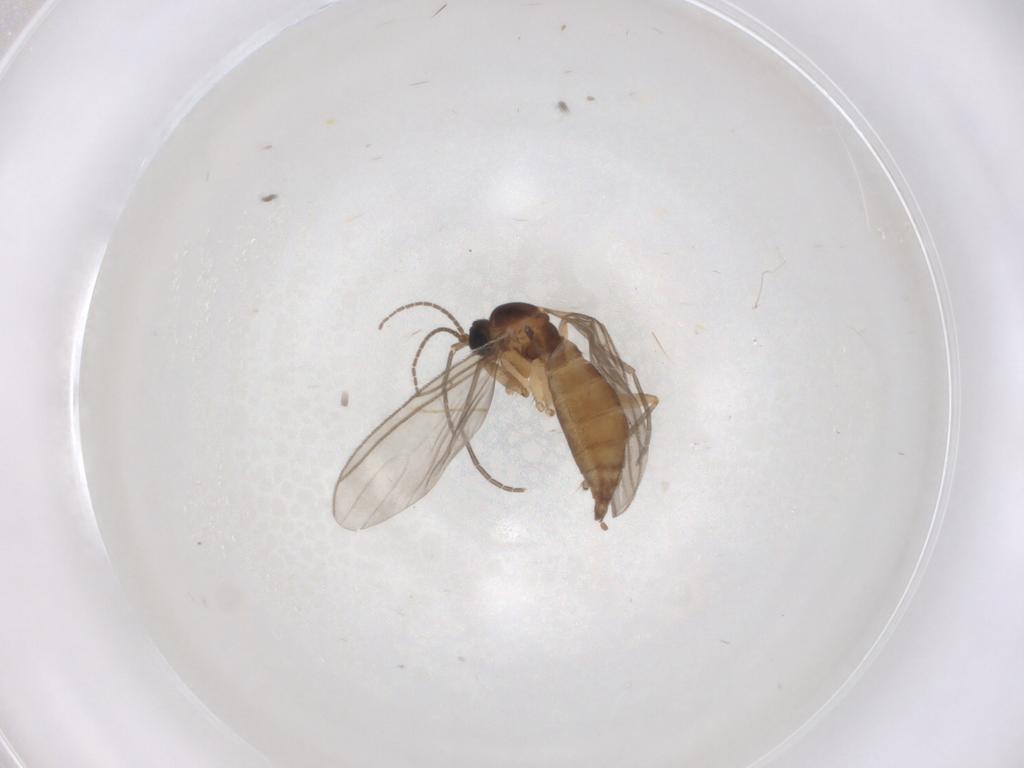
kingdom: Animalia
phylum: Arthropoda
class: Insecta
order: Diptera
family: Sciaridae
